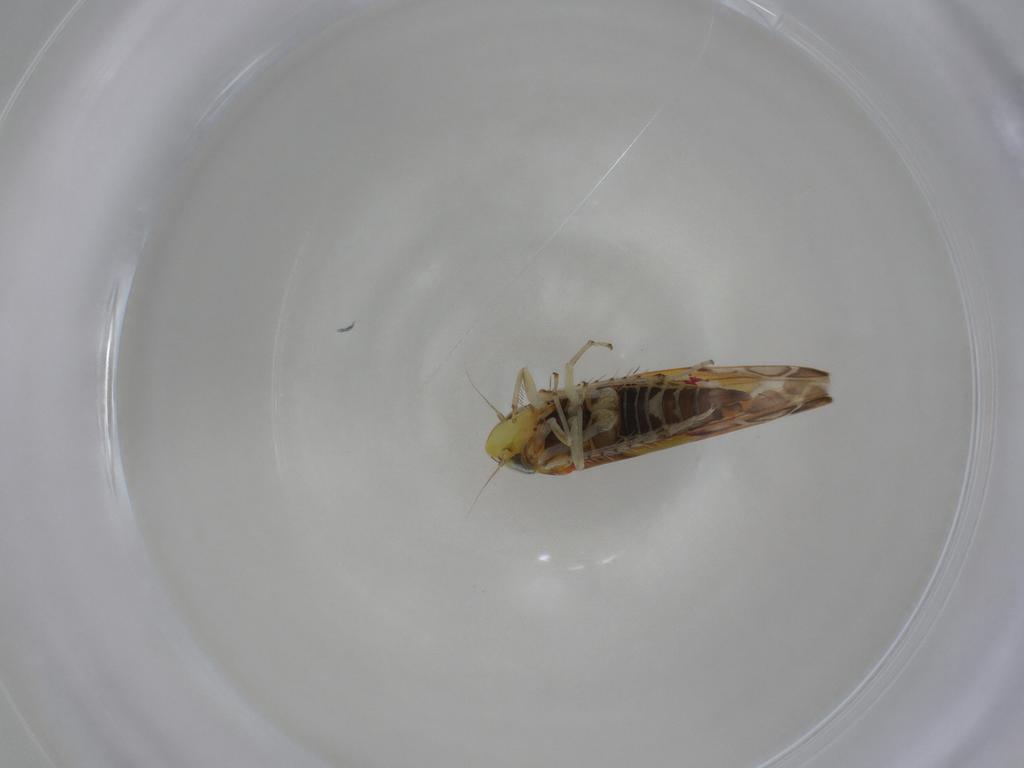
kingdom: Animalia
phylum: Arthropoda
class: Insecta
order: Hemiptera
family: Cicadellidae
